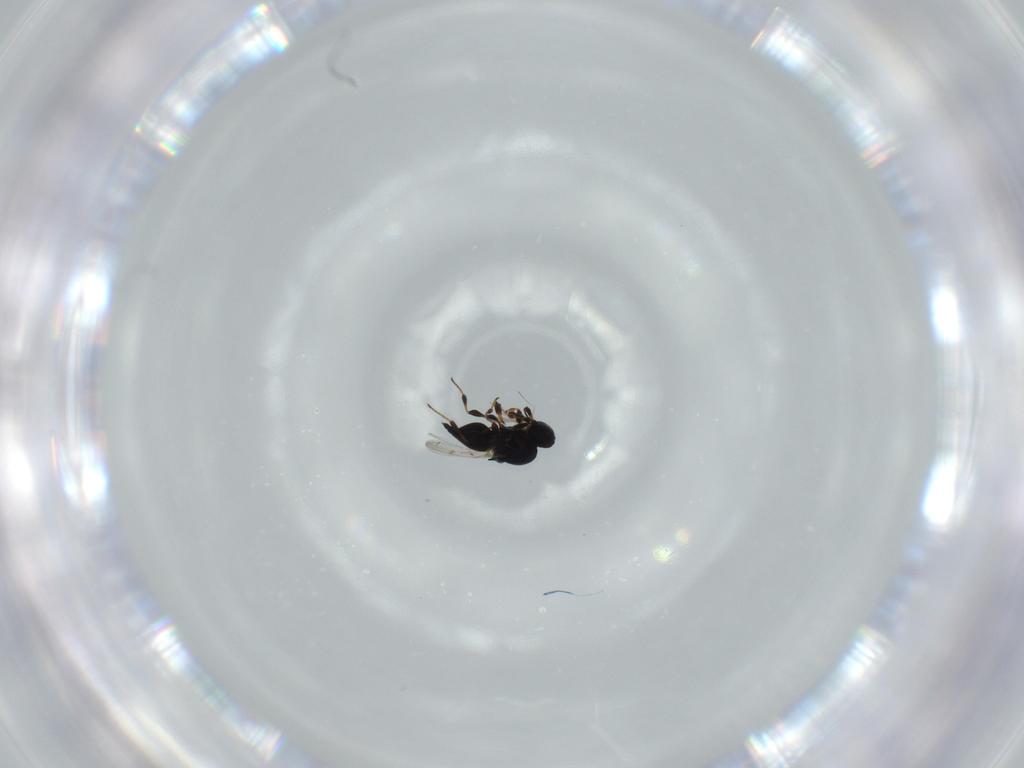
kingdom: Animalia
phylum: Arthropoda
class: Insecta
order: Hymenoptera
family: Platygastridae
